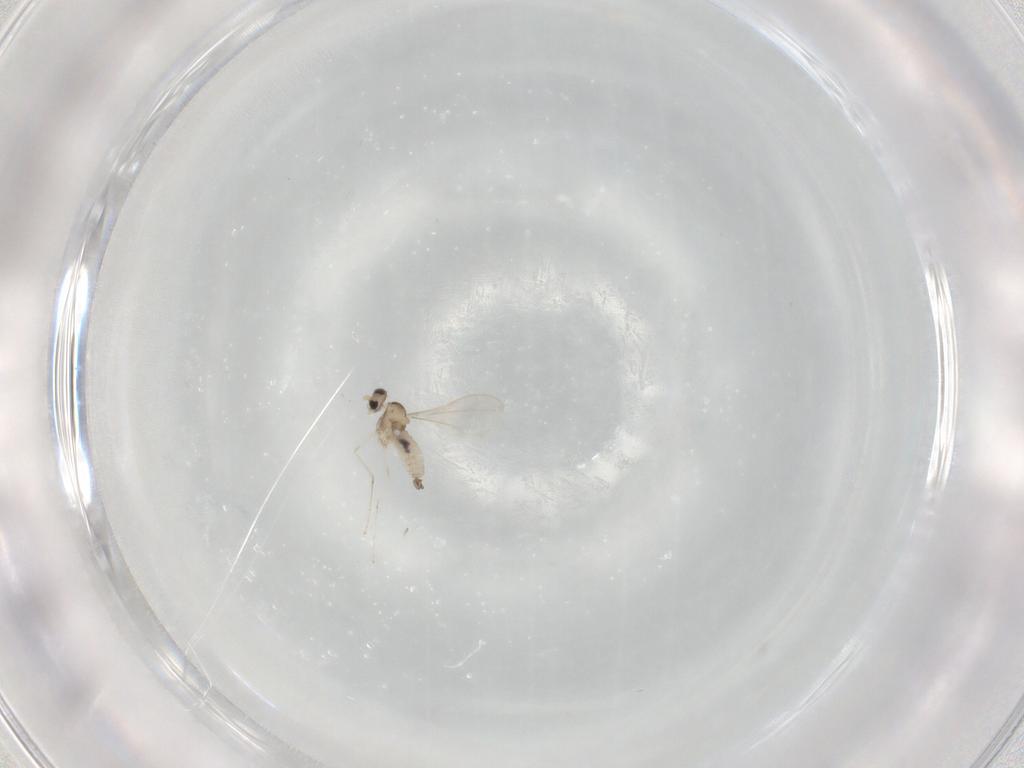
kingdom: Animalia
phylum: Arthropoda
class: Insecta
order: Diptera
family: Cecidomyiidae
